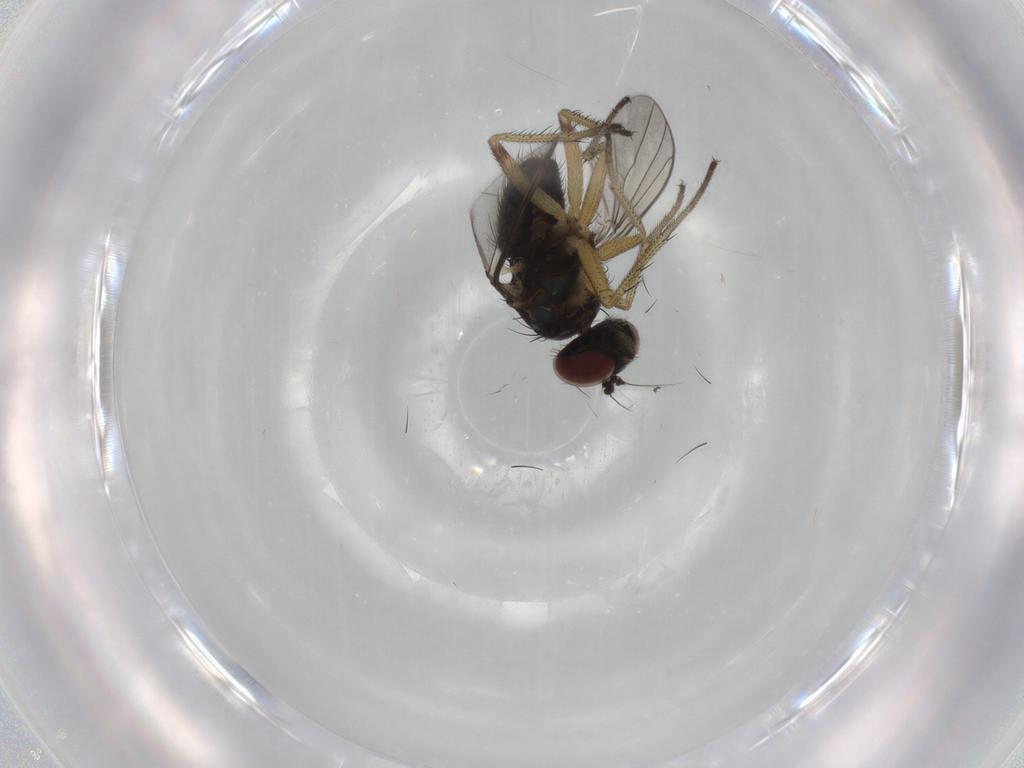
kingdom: Animalia
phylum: Arthropoda
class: Insecta
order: Diptera
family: Dolichopodidae
